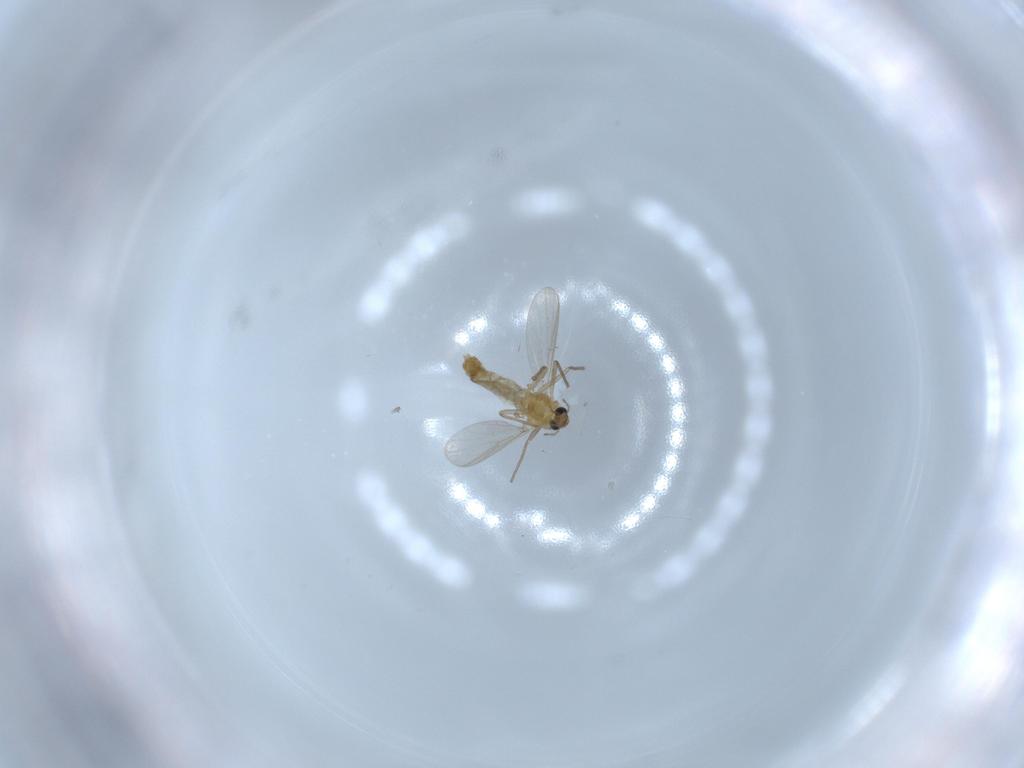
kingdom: Animalia
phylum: Arthropoda
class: Insecta
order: Diptera
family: Chironomidae
